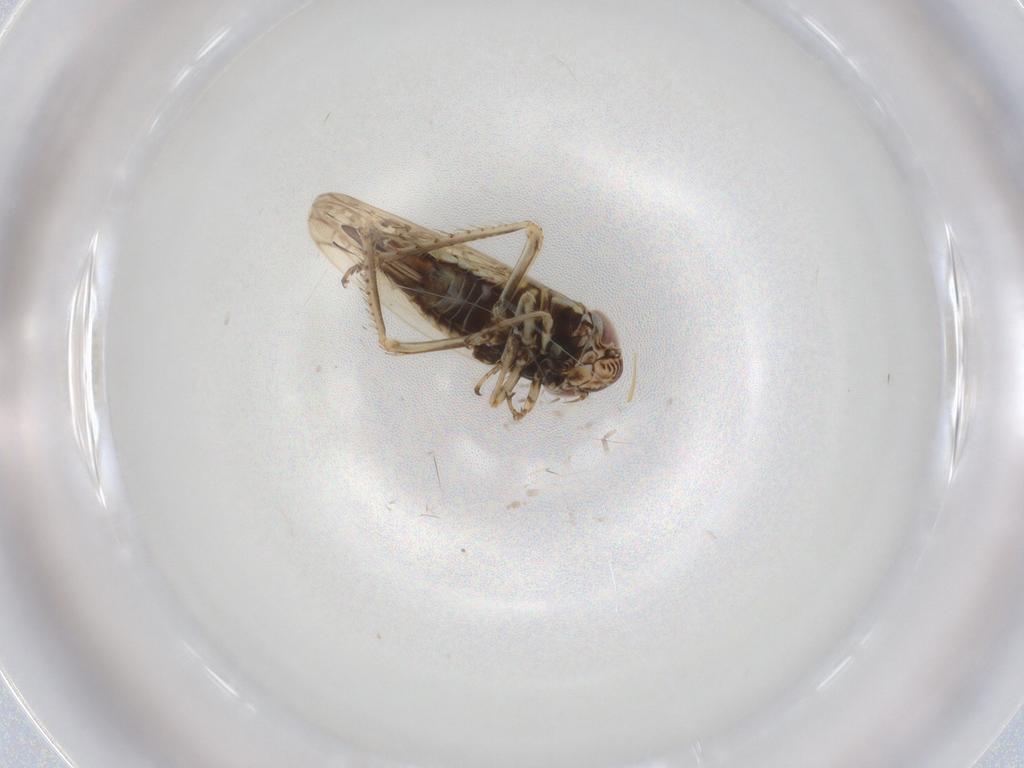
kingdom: Animalia
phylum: Arthropoda
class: Insecta
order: Hemiptera
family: Cicadellidae
